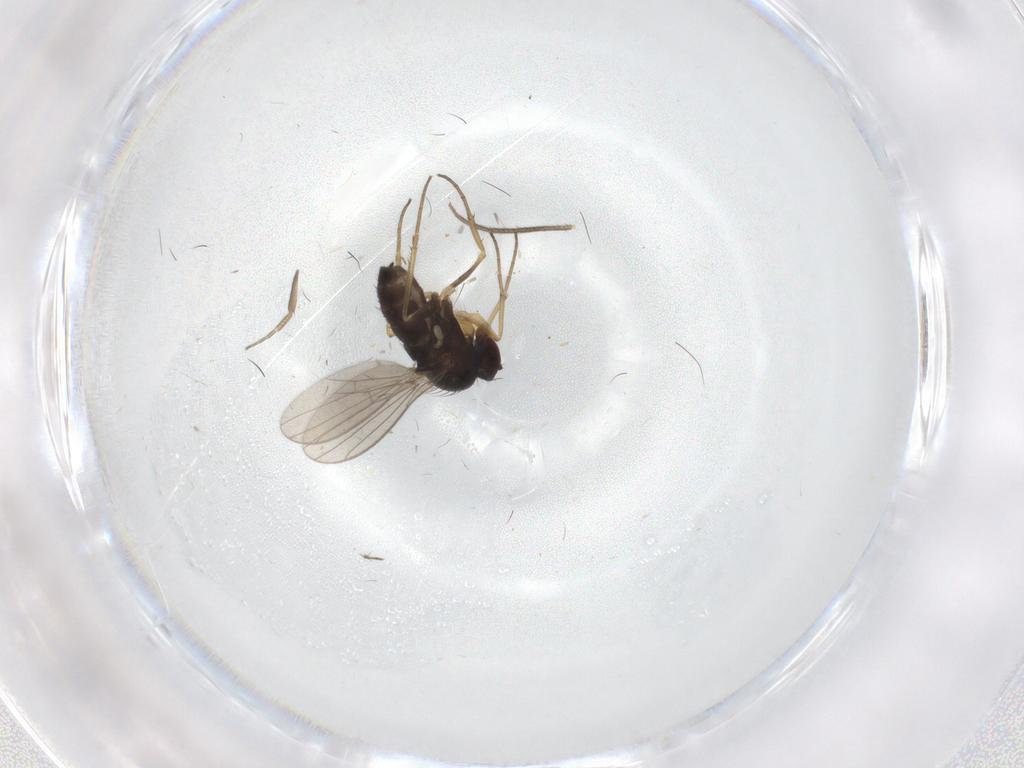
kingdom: Animalia
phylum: Arthropoda
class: Insecta
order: Diptera
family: Dolichopodidae
